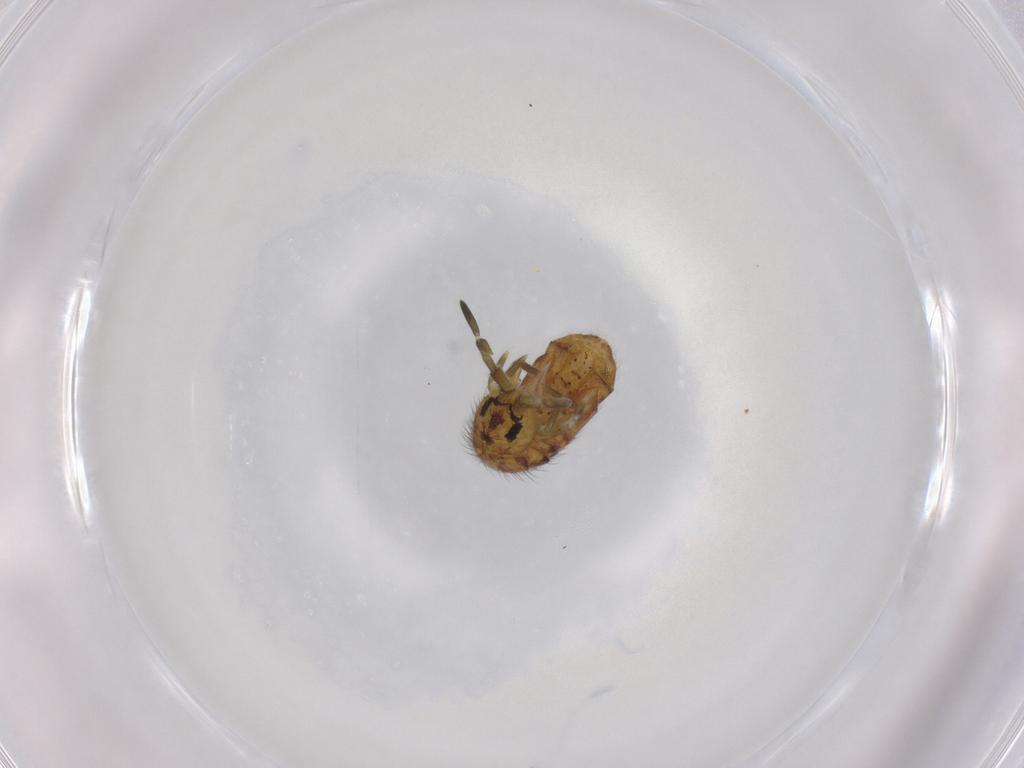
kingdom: Animalia
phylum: Arthropoda
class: Collembola
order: Entomobryomorpha
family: Isotomidae
